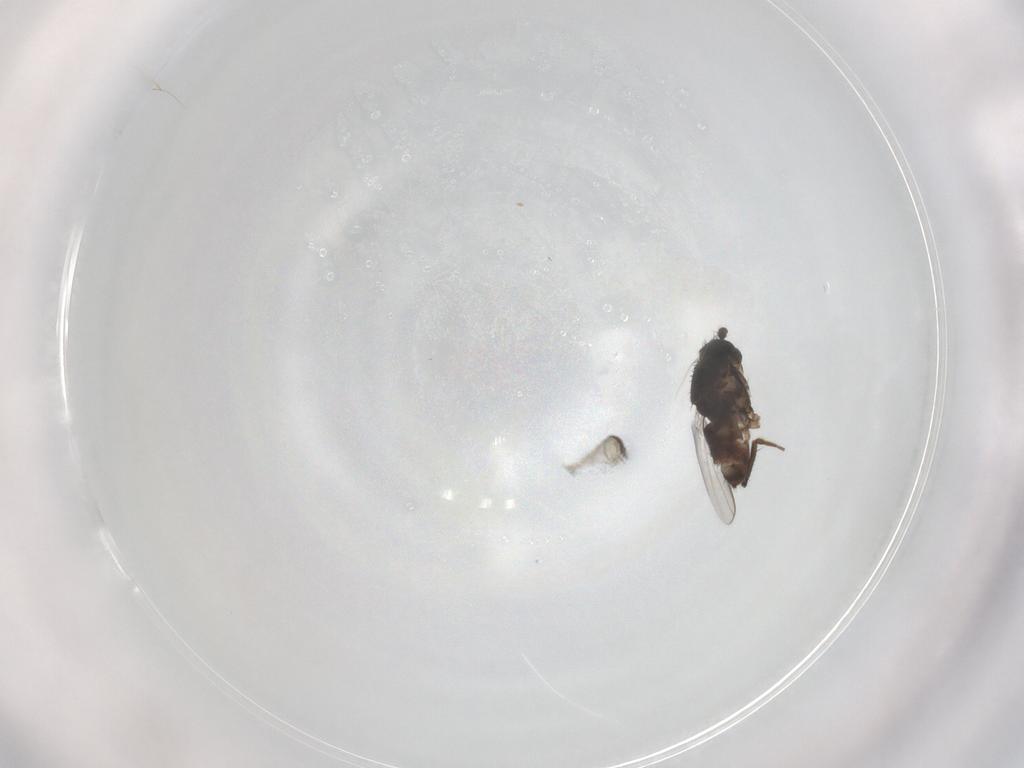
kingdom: Animalia
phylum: Arthropoda
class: Insecta
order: Diptera
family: Sphaeroceridae
